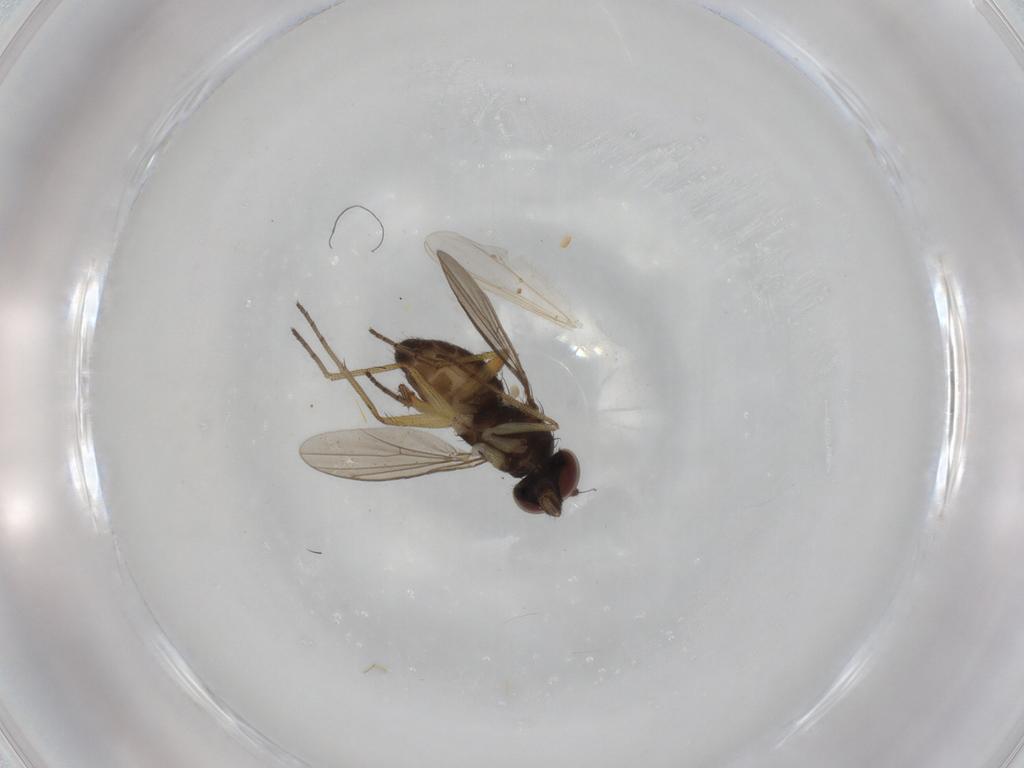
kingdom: Animalia
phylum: Arthropoda
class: Insecta
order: Diptera
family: Dolichopodidae
